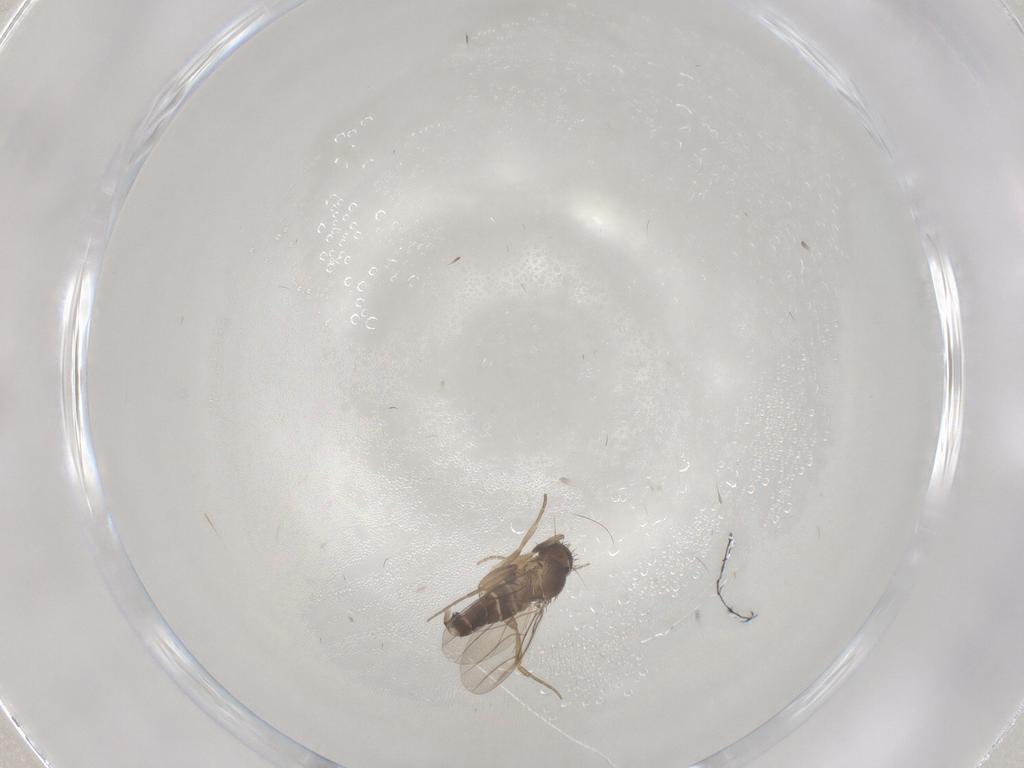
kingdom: Animalia
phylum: Arthropoda
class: Insecta
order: Diptera
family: Phoridae
